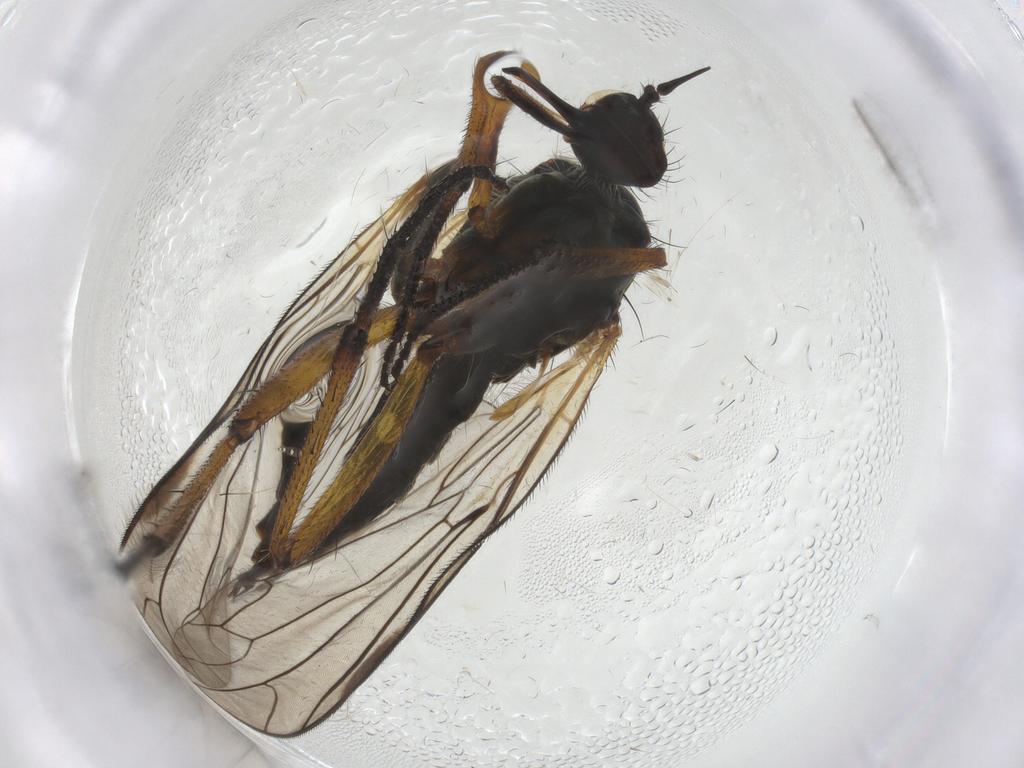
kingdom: Animalia
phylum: Arthropoda
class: Insecta
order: Diptera
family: Empididae
